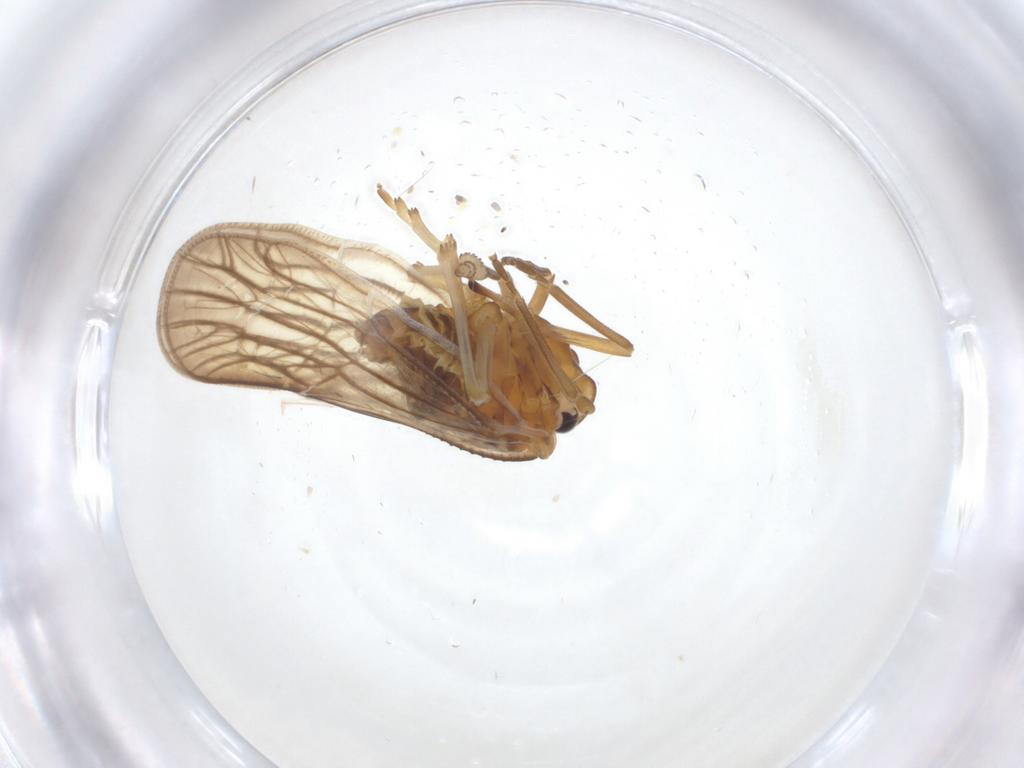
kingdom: Animalia
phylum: Arthropoda
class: Insecta
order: Hemiptera
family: Meenoplidae
